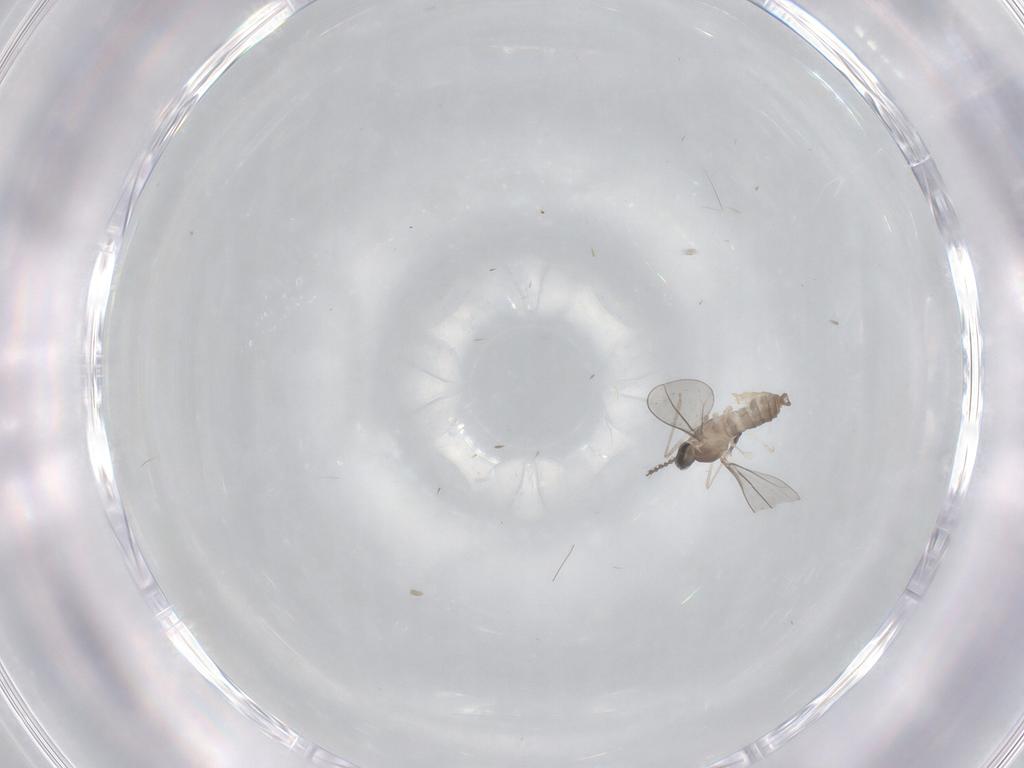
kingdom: Animalia
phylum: Arthropoda
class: Insecta
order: Diptera
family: Cecidomyiidae
